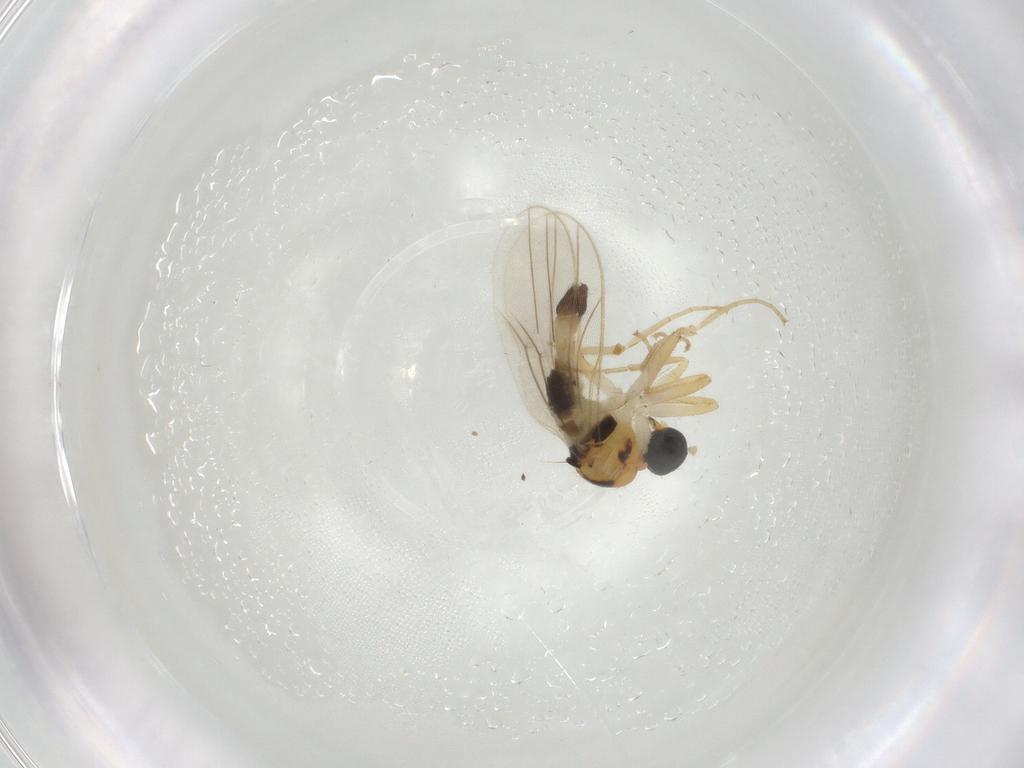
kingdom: Animalia
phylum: Arthropoda
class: Insecta
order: Diptera
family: Hybotidae
